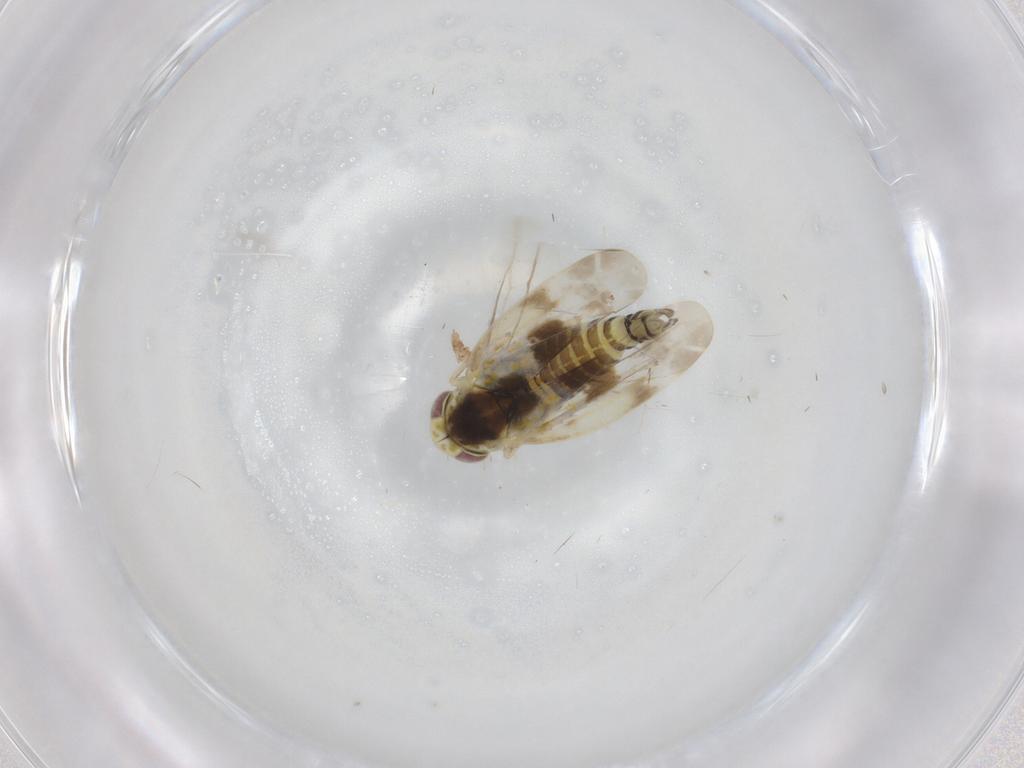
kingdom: Animalia
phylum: Arthropoda
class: Insecta
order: Hemiptera
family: Cicadellidae
